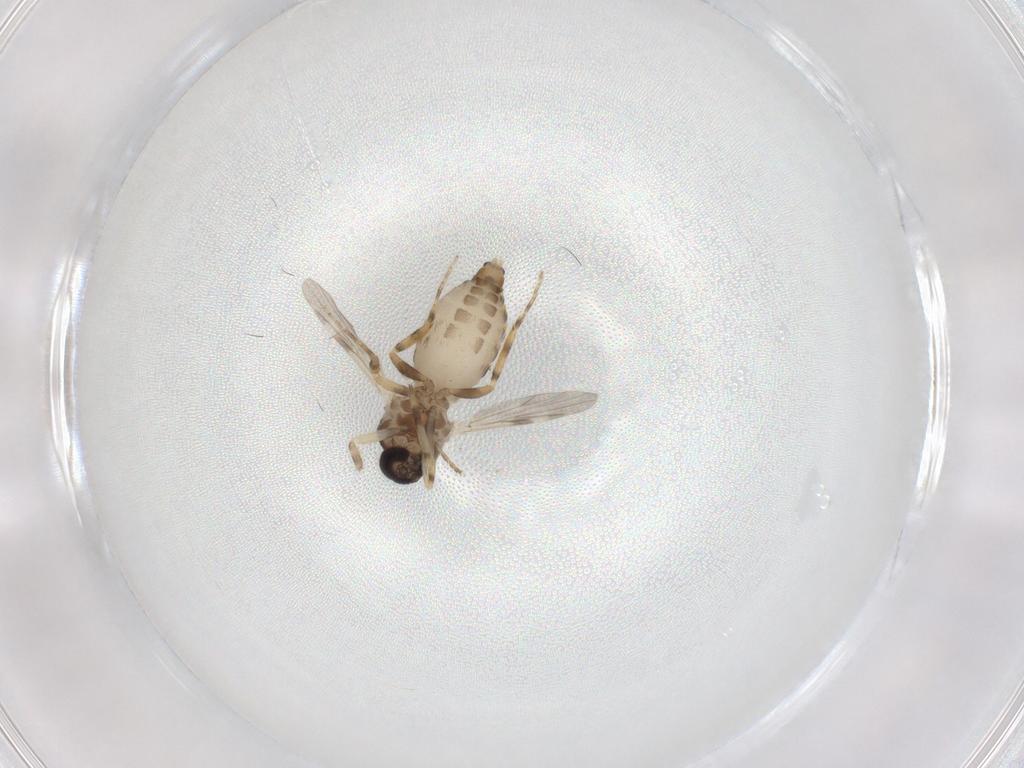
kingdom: Animalia
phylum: Arthropoda
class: Insecta
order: Diptera
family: Ceratopogonidae
